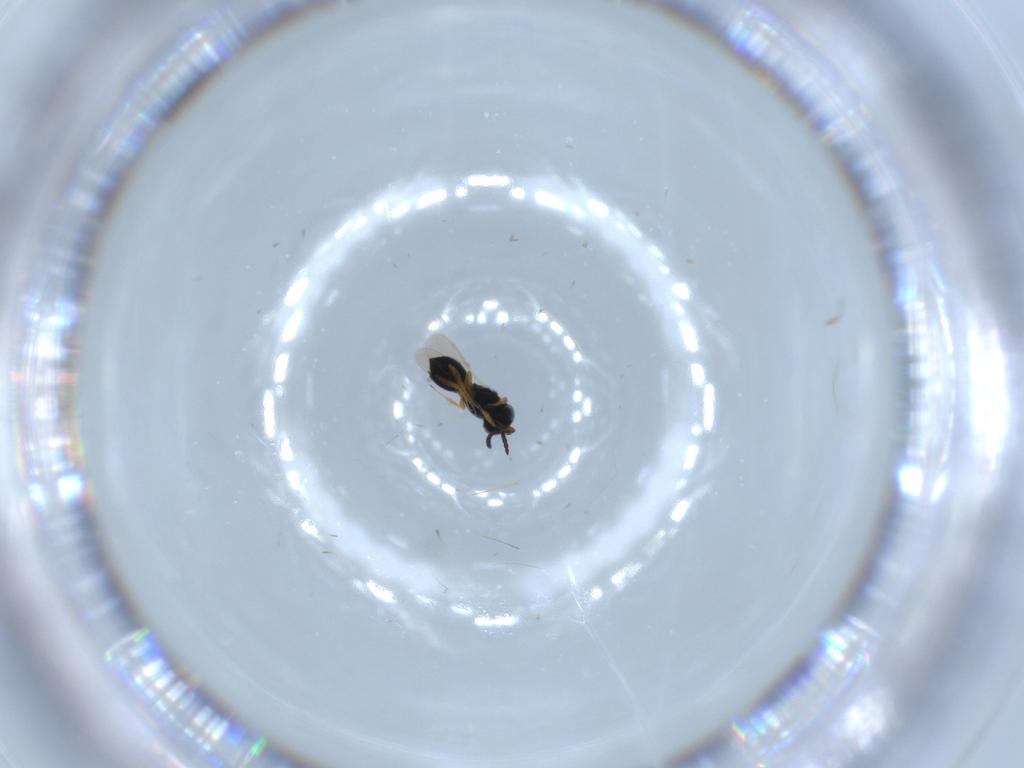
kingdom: Animalia
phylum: Arthropoda
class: Insecta
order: Hymenoptera
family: Scelionidae
